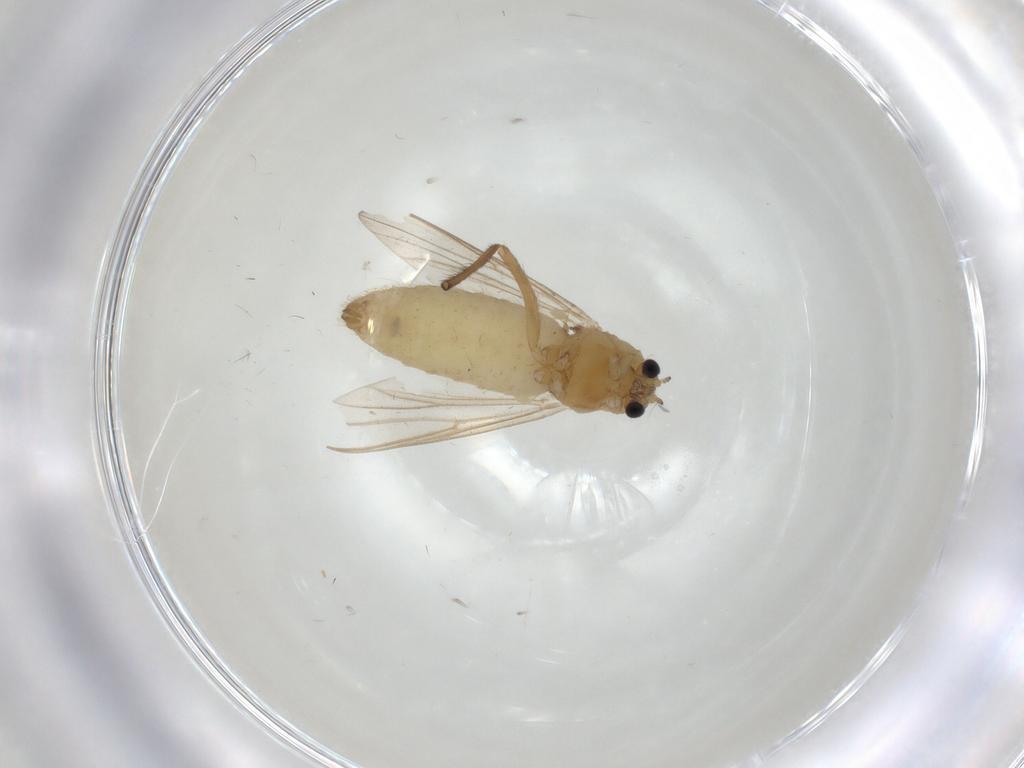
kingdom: Animalia
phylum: Arthropoda
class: Insecta
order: Diptera
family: Chironomidae
